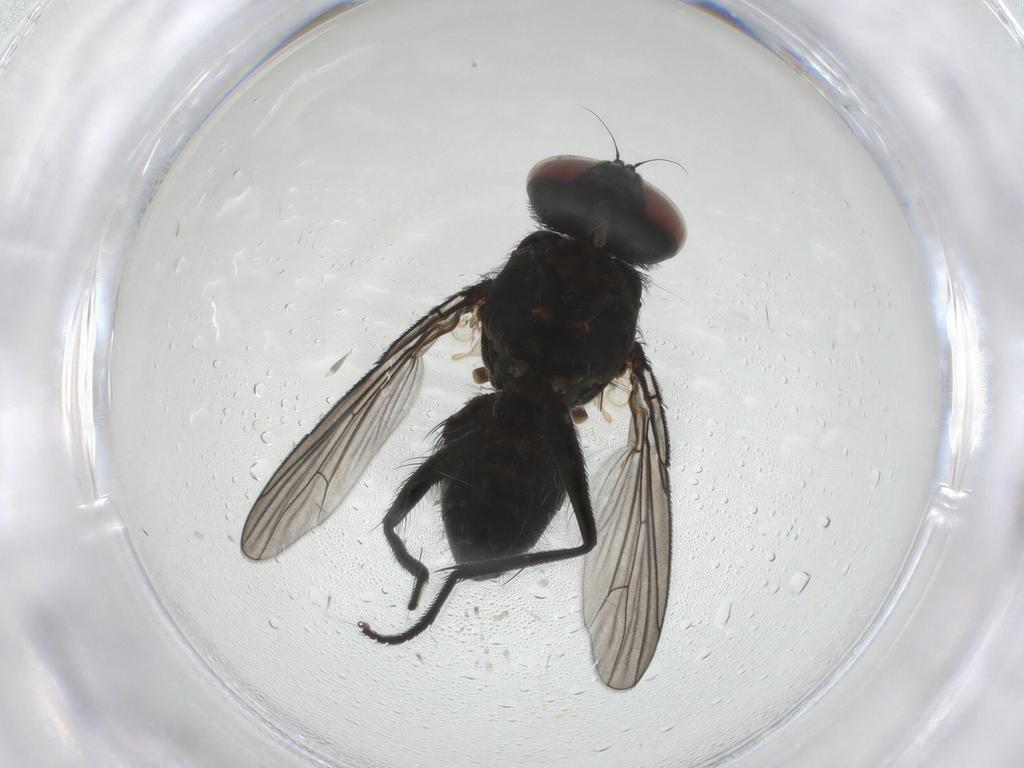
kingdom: Animalia
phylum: Arthropoda
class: Insecta
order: Diptera
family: Muscidae
